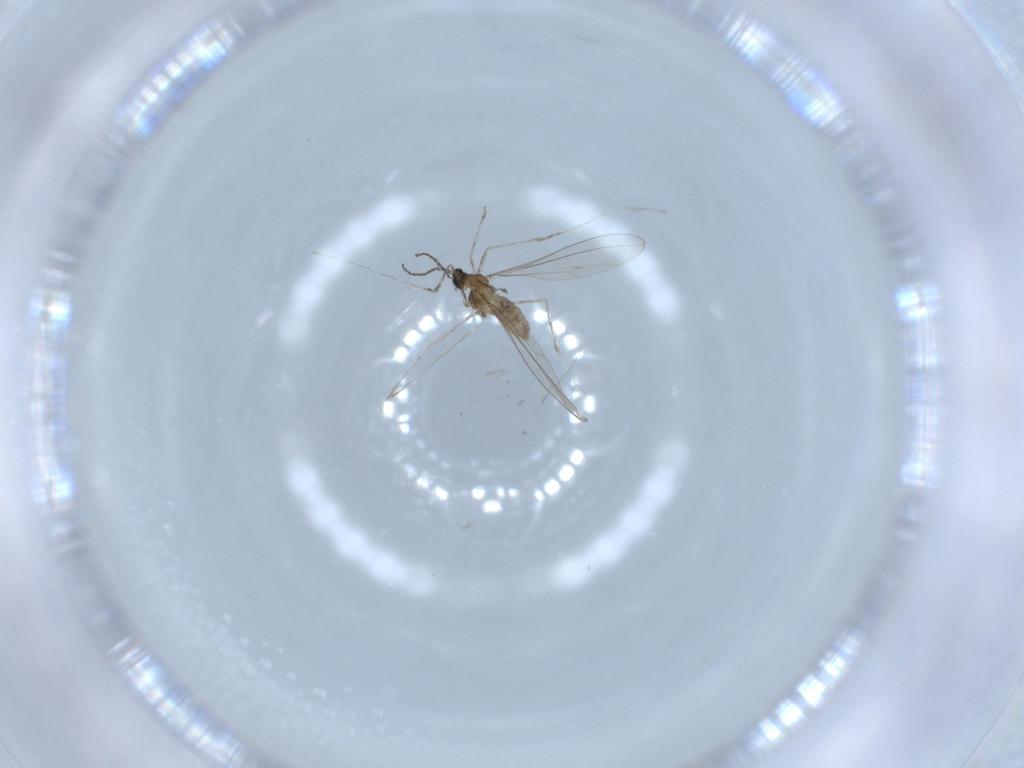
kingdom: Animalia
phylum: Arthropoda
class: Insecta
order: Diptera
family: Cecidomyiidae
